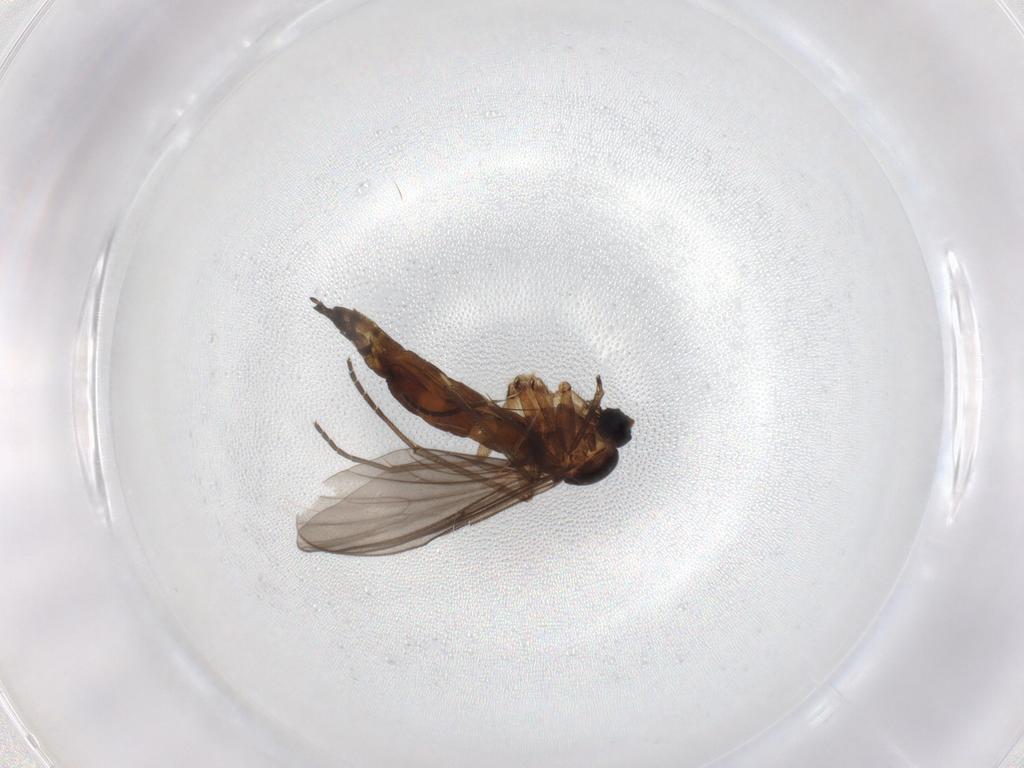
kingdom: Animalia
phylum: Arthropoda
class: Insecta
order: Diptera
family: Sciaridae
